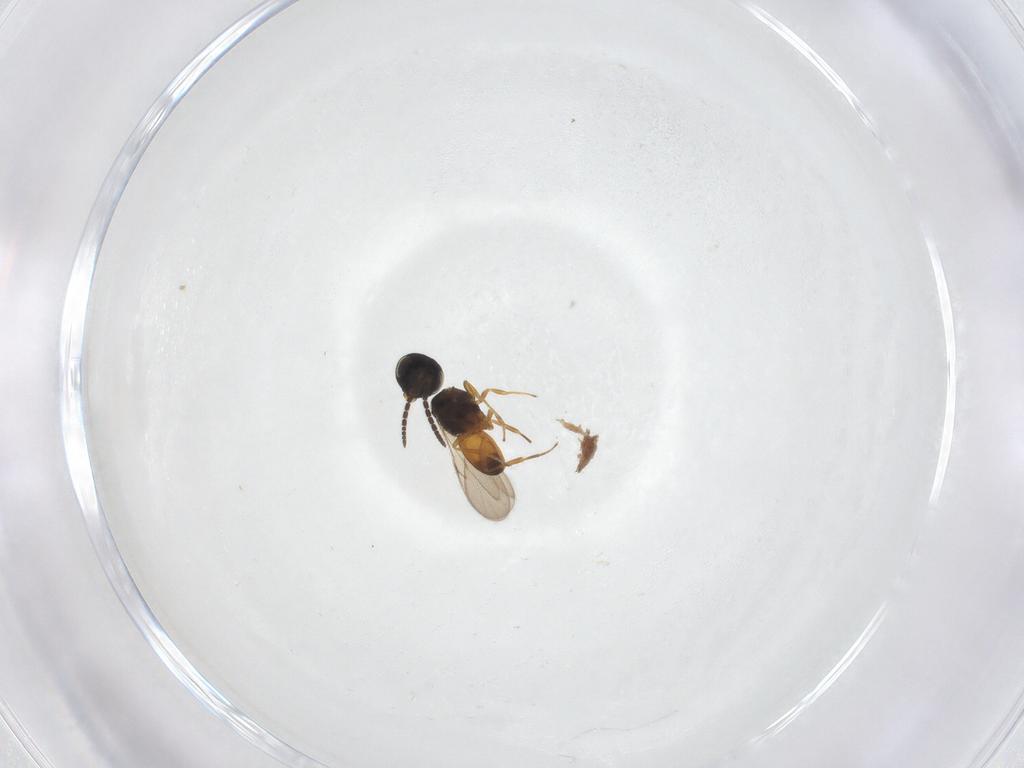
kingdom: Animalia
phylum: Arthropoda
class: Insecta
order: Hymenoptera
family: Scelionidae
